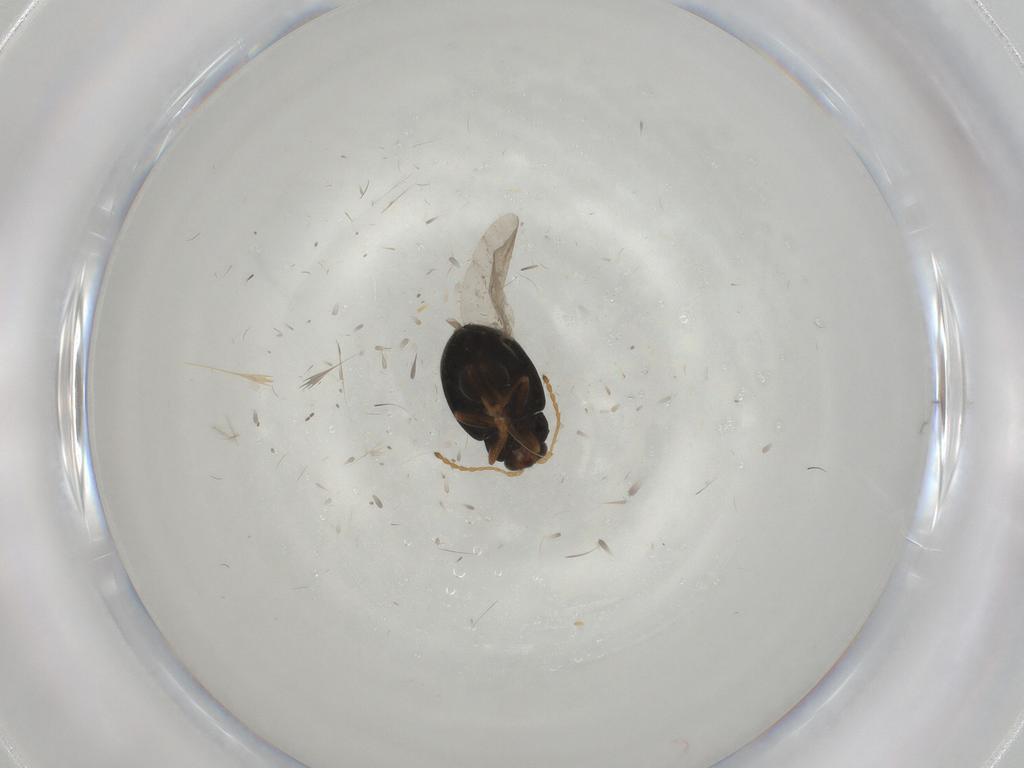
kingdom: Animalia
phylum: Arthropoda
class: Insecta
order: Coleoptera
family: Chrysomelidae
